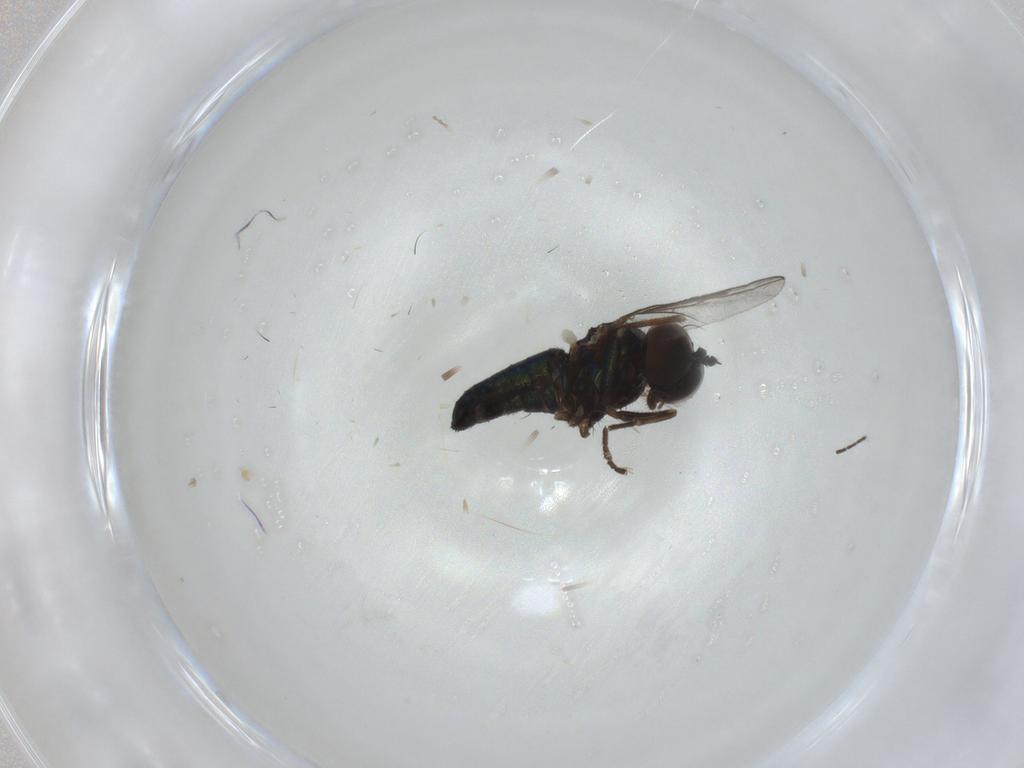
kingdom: Animalia
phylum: Arthropoda
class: Insecta
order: Diptera
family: Dolichopodidae
